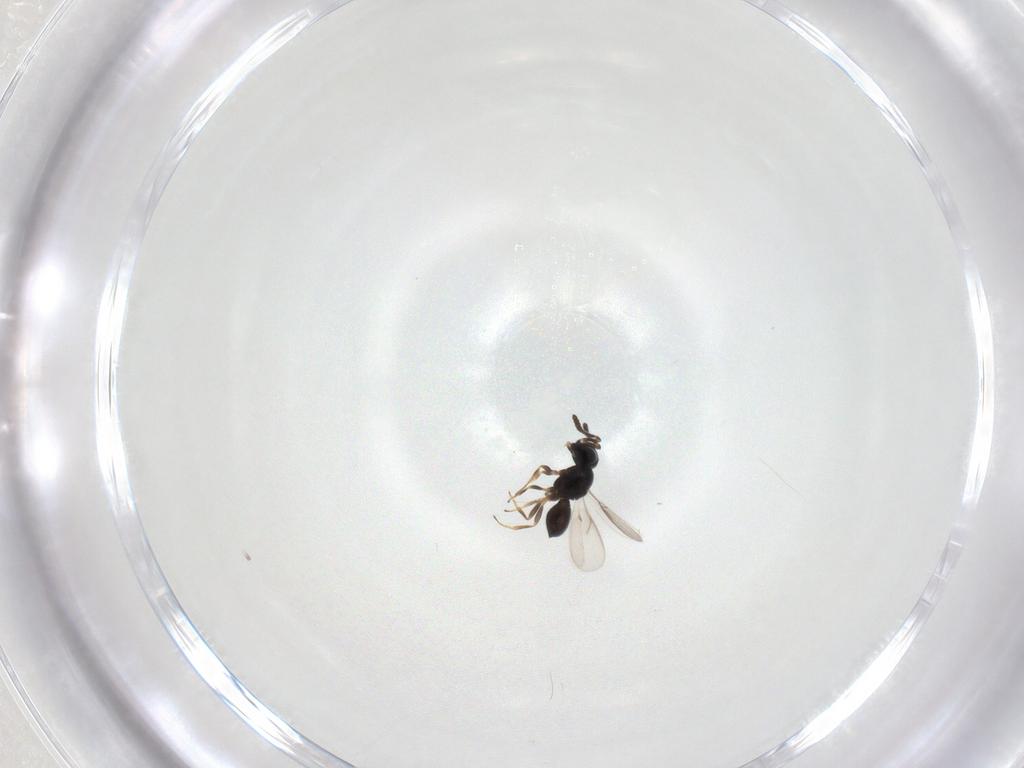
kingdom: Animalia
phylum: Arthropoda
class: Insecta
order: Hymenoptera
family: Scelionidae
